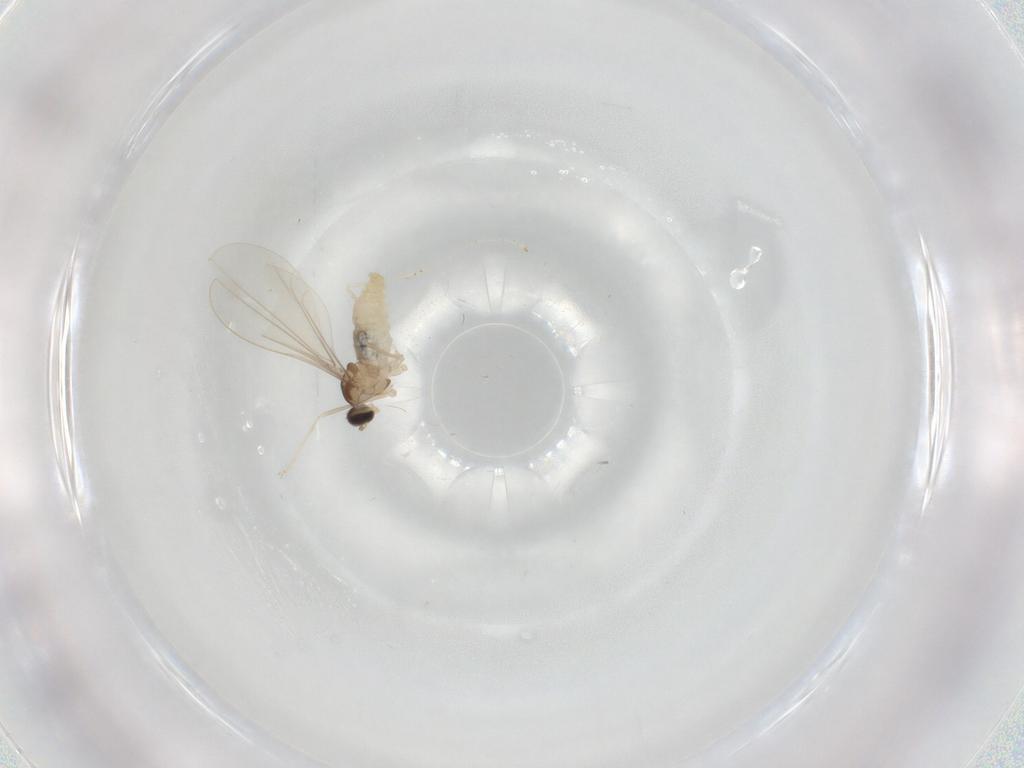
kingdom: Animalia
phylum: Arthropoda
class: Insecta
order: Diptera
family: Cecidomyiidae
